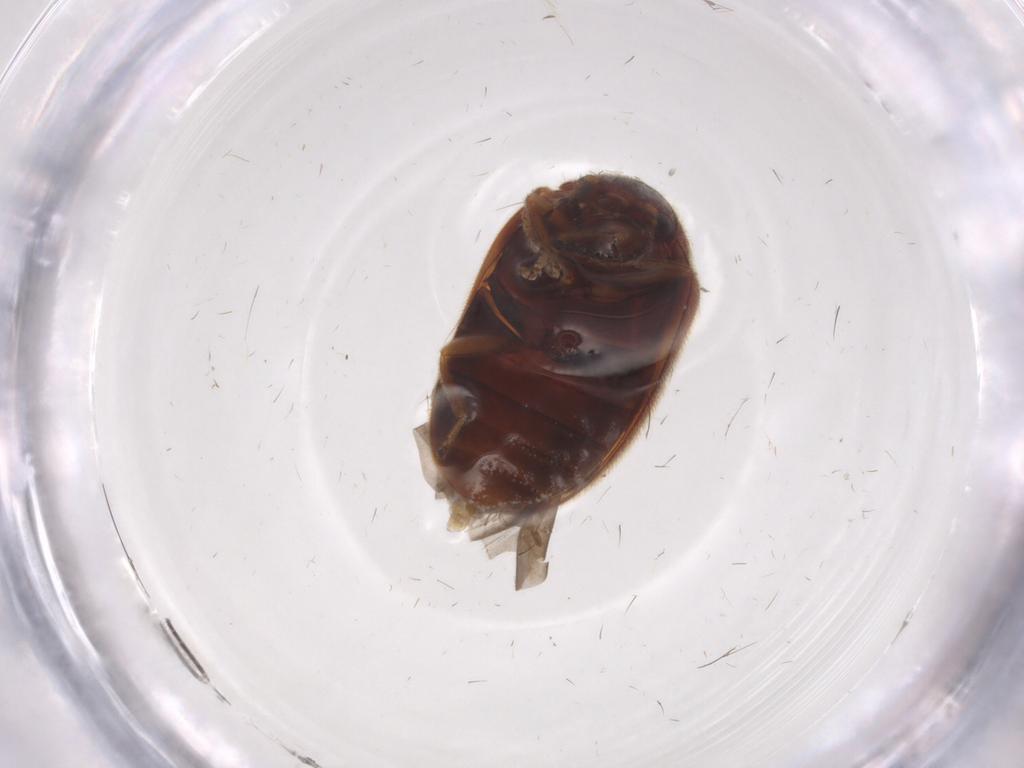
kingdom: Animalia
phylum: Arthropoda
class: Insecta
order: Coleoptera
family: Scirtidae
